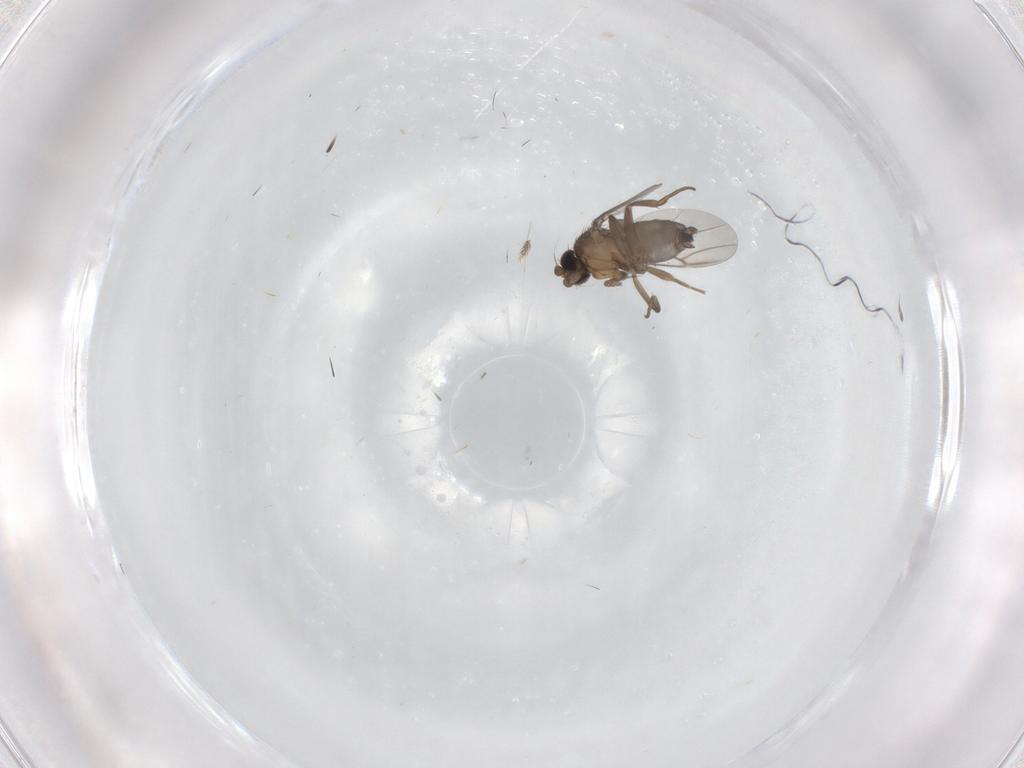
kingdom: Animalia
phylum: Arthropoda
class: Insecta
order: Diptera
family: Phoridae
